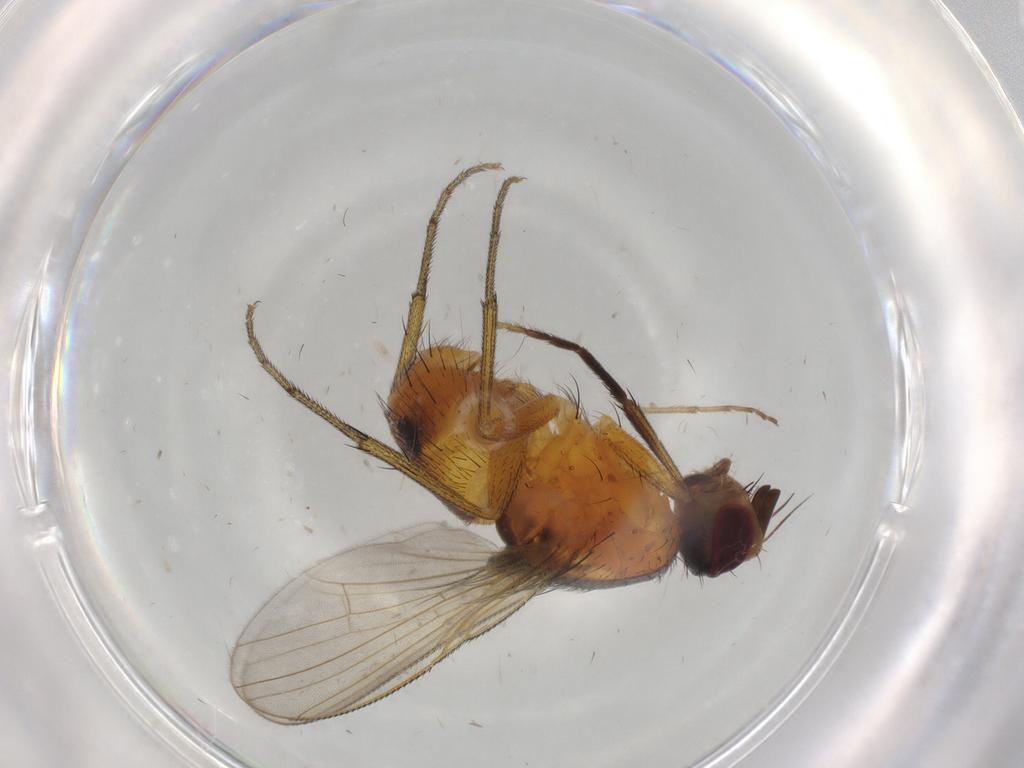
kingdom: Animalia
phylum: Arthropoda
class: Insecta
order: Diptera
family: Muscidae
